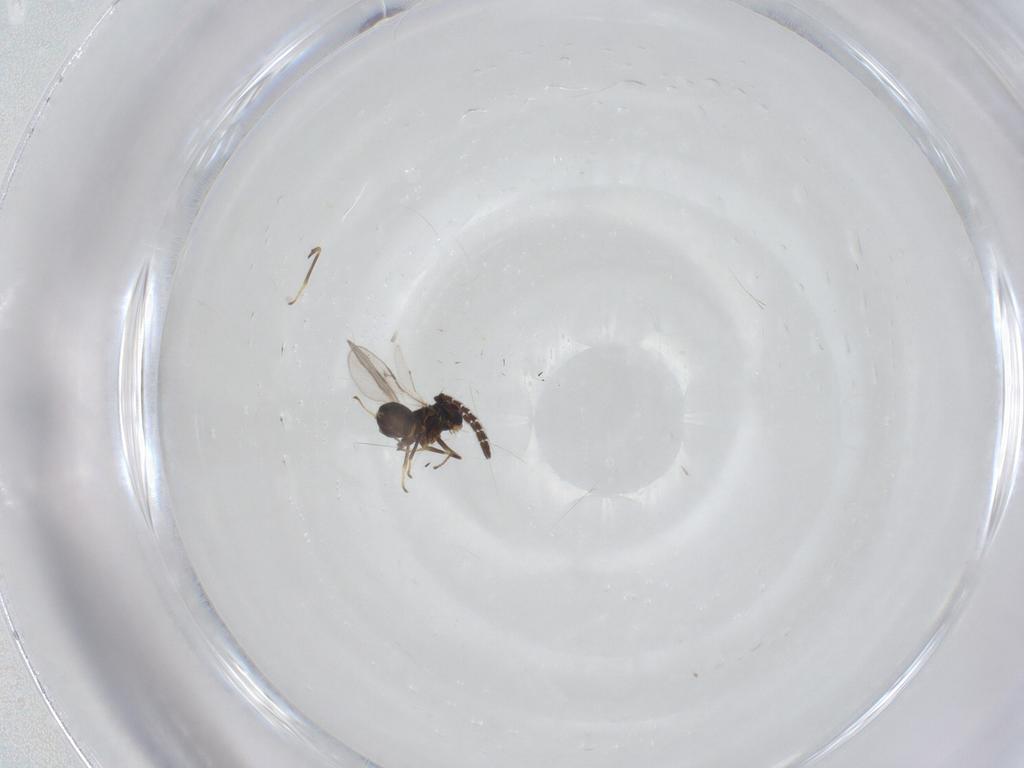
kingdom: Animalia
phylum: Arthropoda
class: Insecta
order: Hymenoptera
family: Encyrtidae
